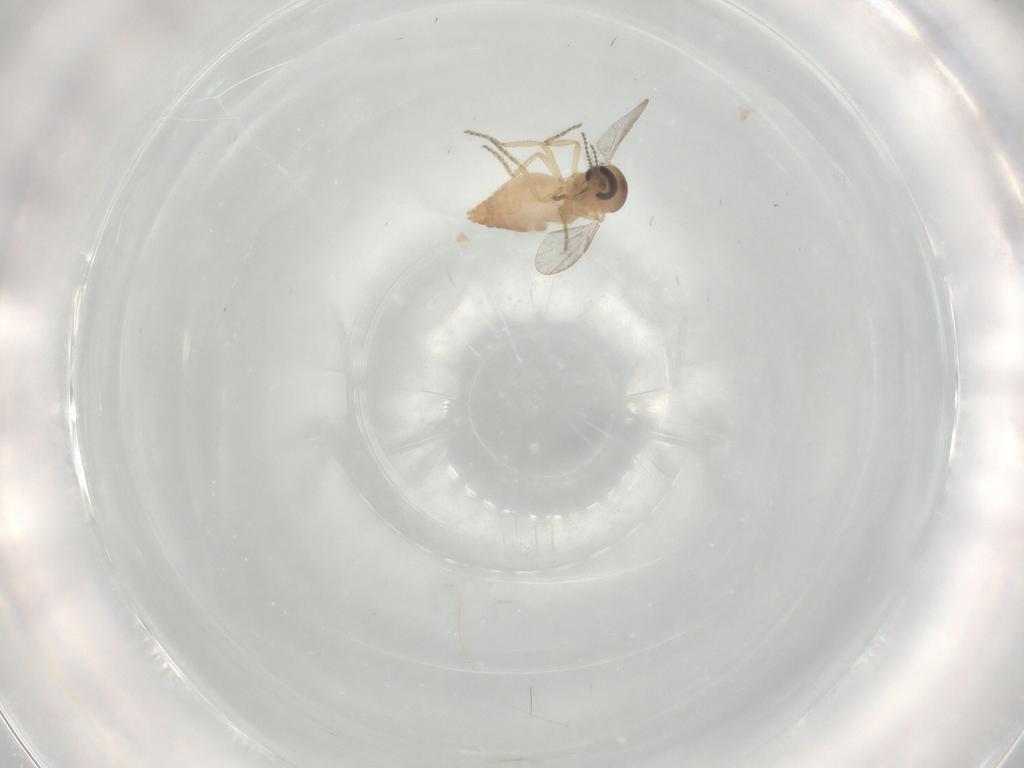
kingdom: Animalia
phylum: Arthropoda
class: Insecta
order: Diptera
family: Ceratopogonidae
